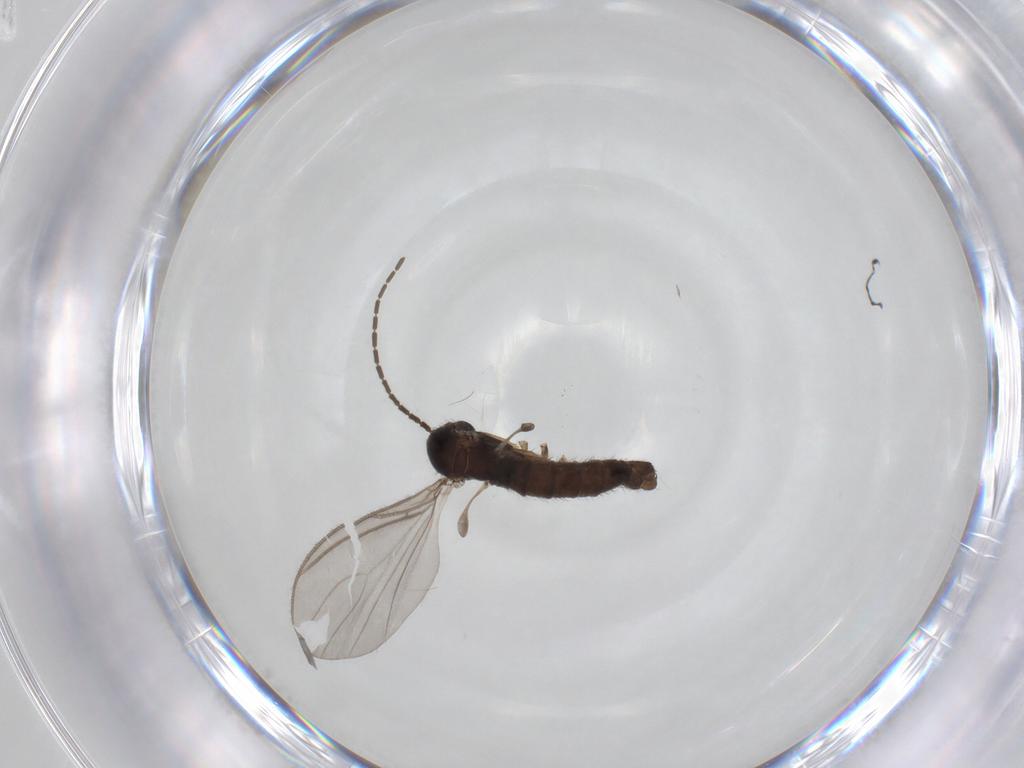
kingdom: Animalia
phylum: Arthropoda
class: Insecta
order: Diptera
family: Sciaridae
